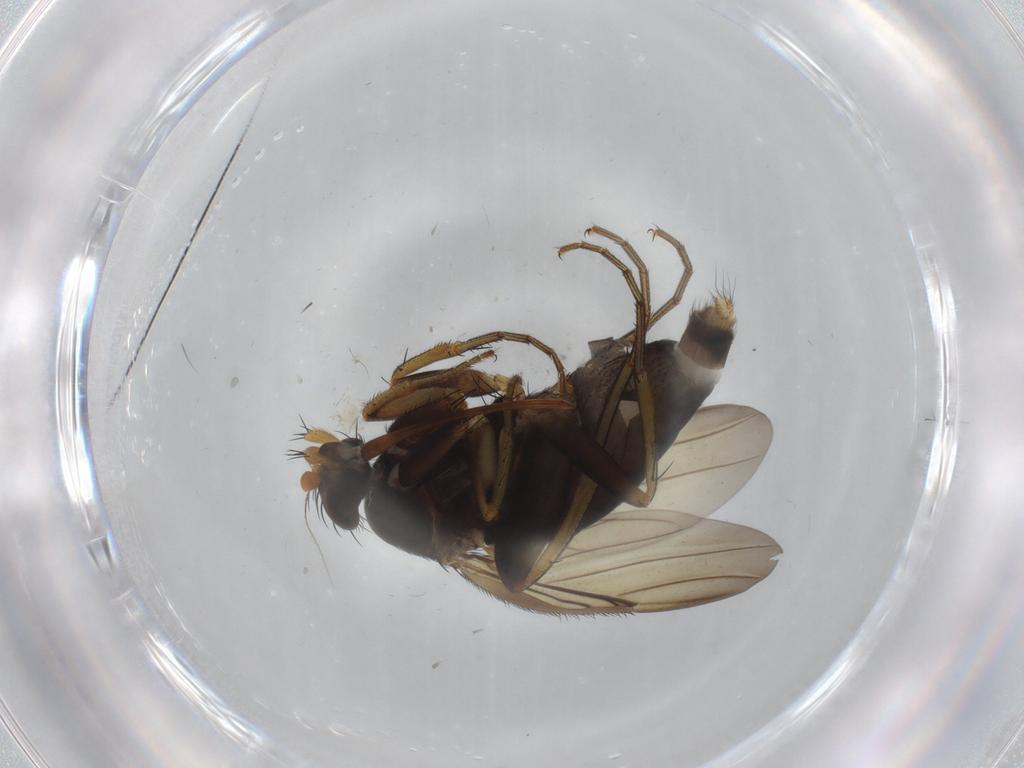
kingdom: Animalia
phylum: Arthropoda
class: Insecta
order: Diptera
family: Phoridae
